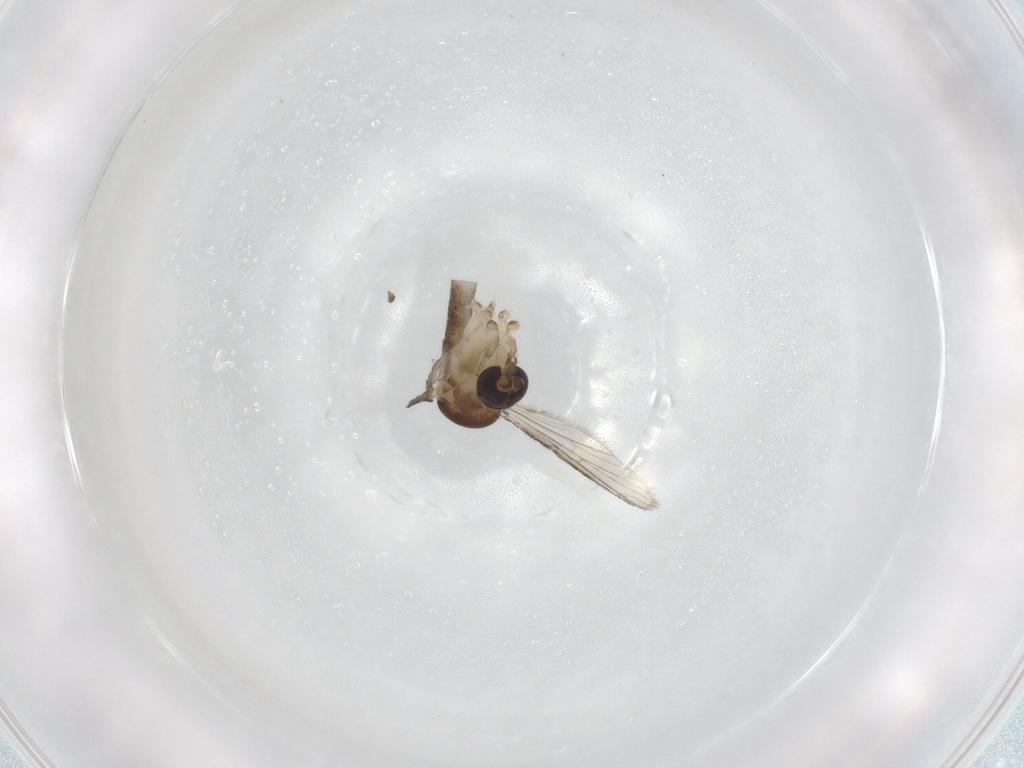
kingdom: Animalia
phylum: Arthropoda
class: Insecta
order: Diptera
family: Culicidae
